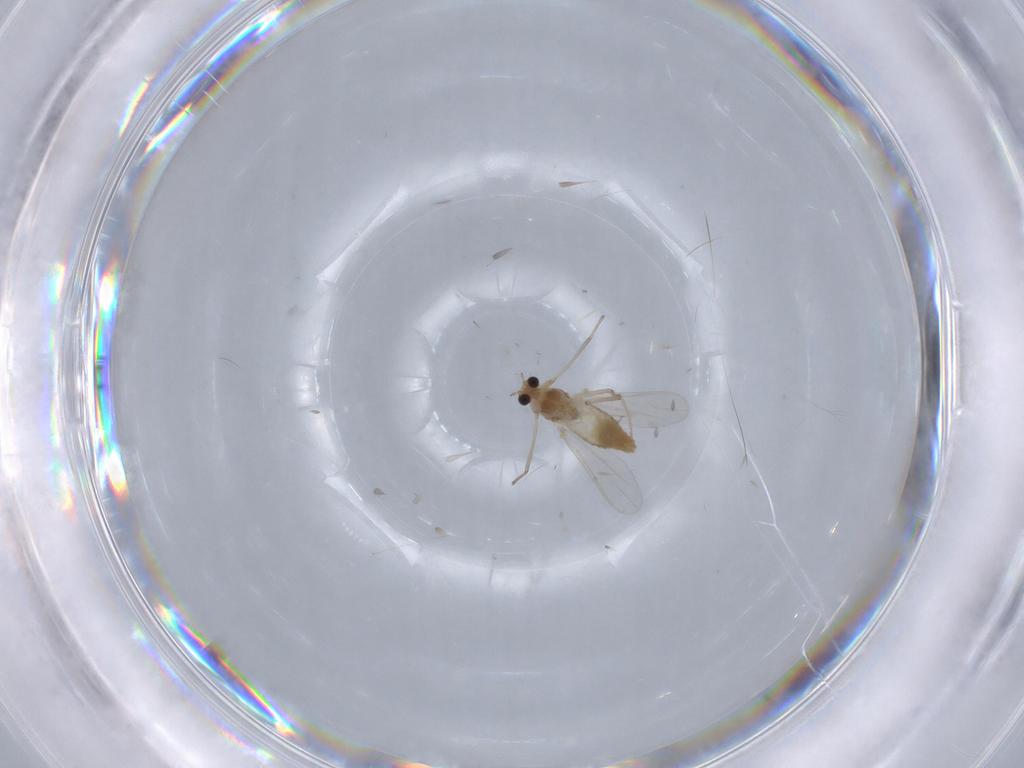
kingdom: Animalia
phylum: Arthropoda
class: Insecta
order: Diptera
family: Chironomidae
